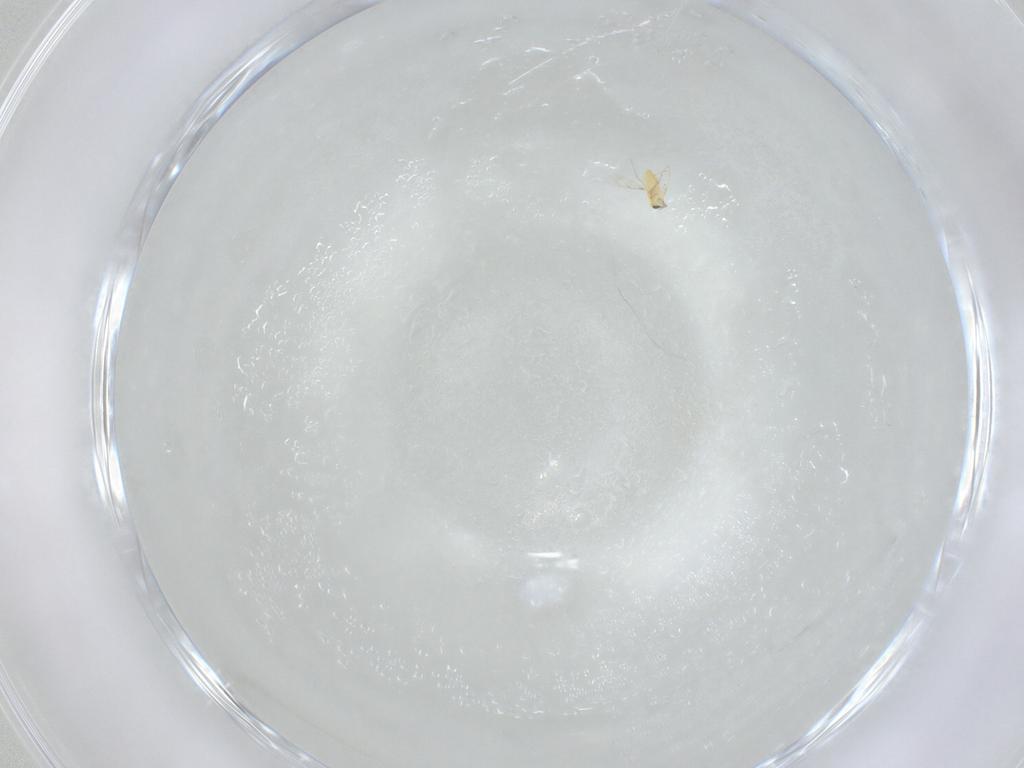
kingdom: Animalia
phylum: Arthropoda
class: Insecta
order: Hymenoptera
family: Trichogrammatidae
